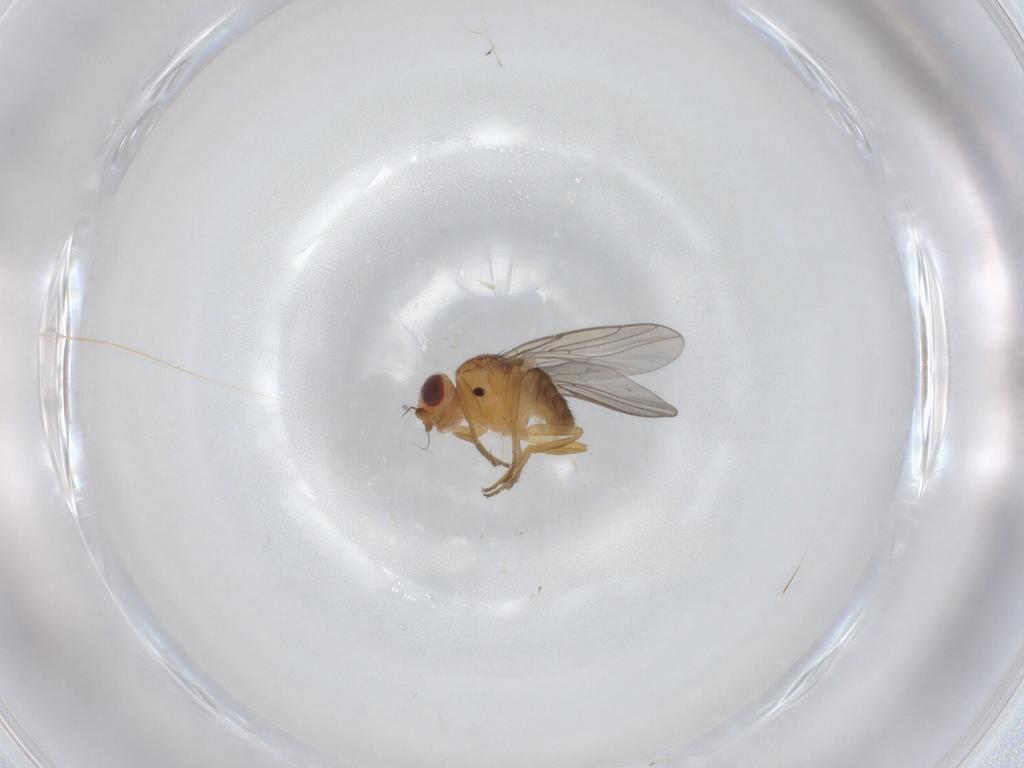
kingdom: Animalia
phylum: Arthropoda
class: Insecta
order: Diptera
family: Chloropidae
